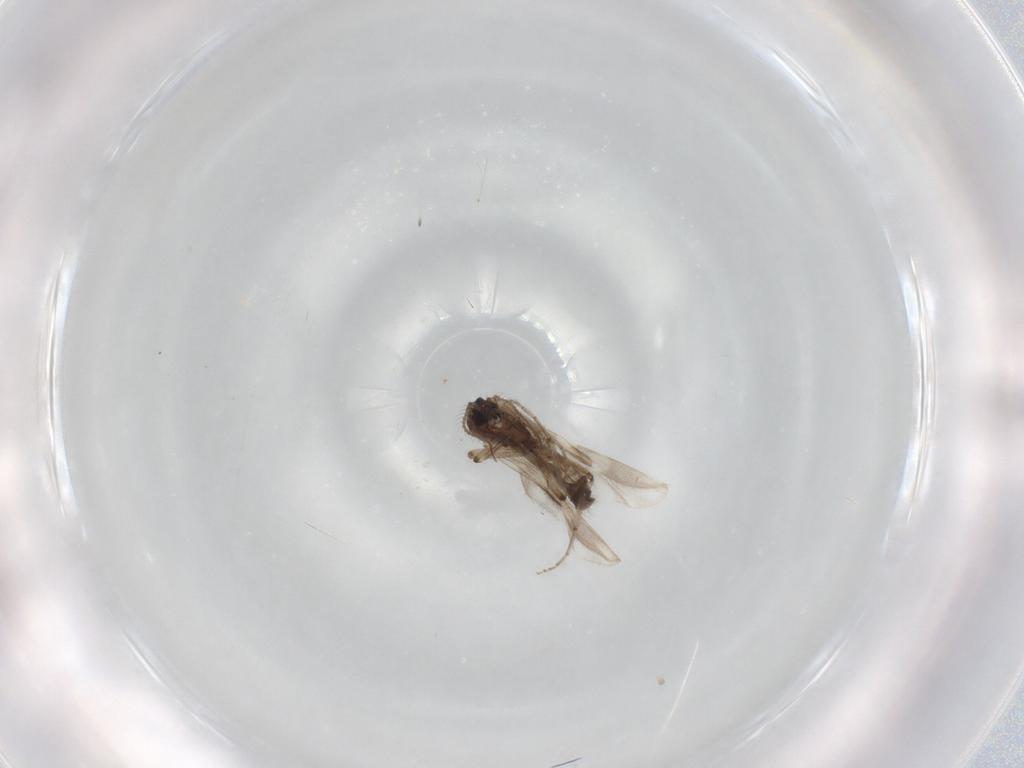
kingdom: Animalia
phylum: Arthropoda
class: Insecta
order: Diptera
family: Ceratopogonidae
